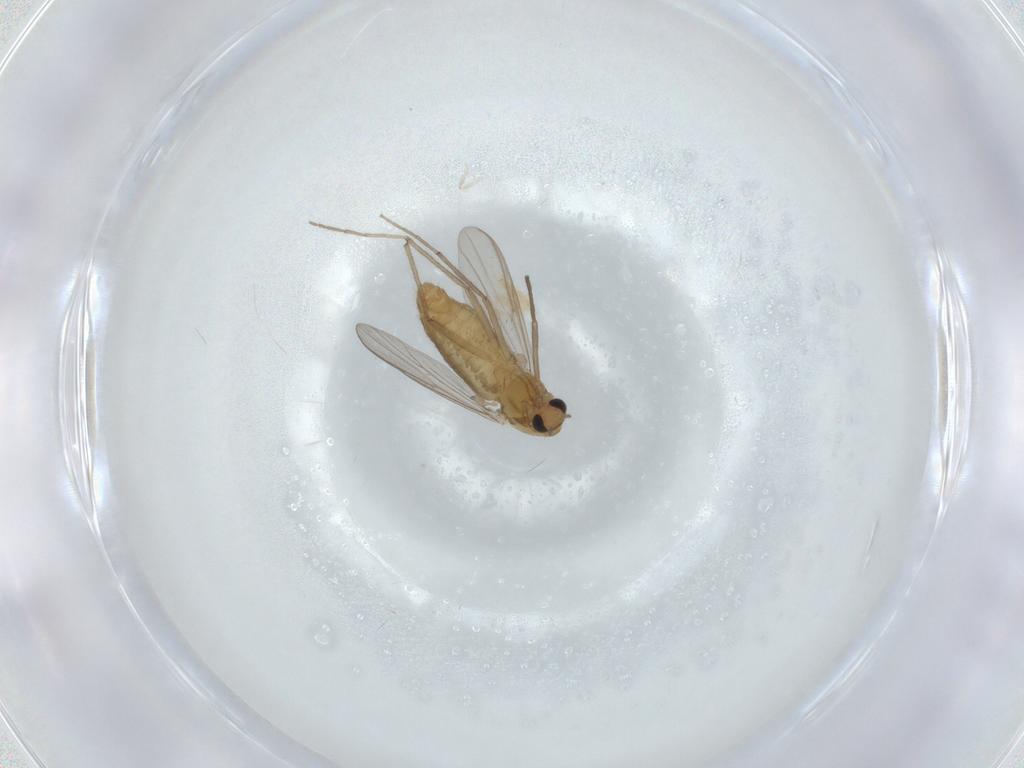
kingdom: Animalia
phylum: Arthropoda
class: Insecta
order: Diptera
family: Chironomidae
